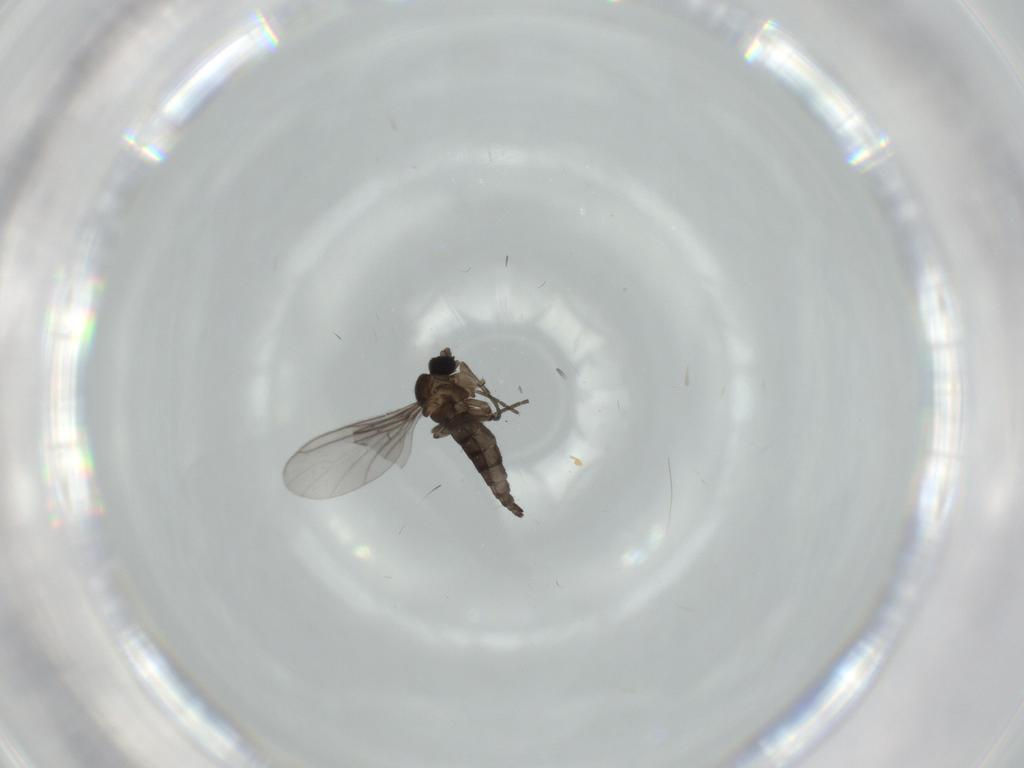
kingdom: Animalia
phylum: Arthropoda
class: Insecta
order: Diptera
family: Cecidomyiidae
